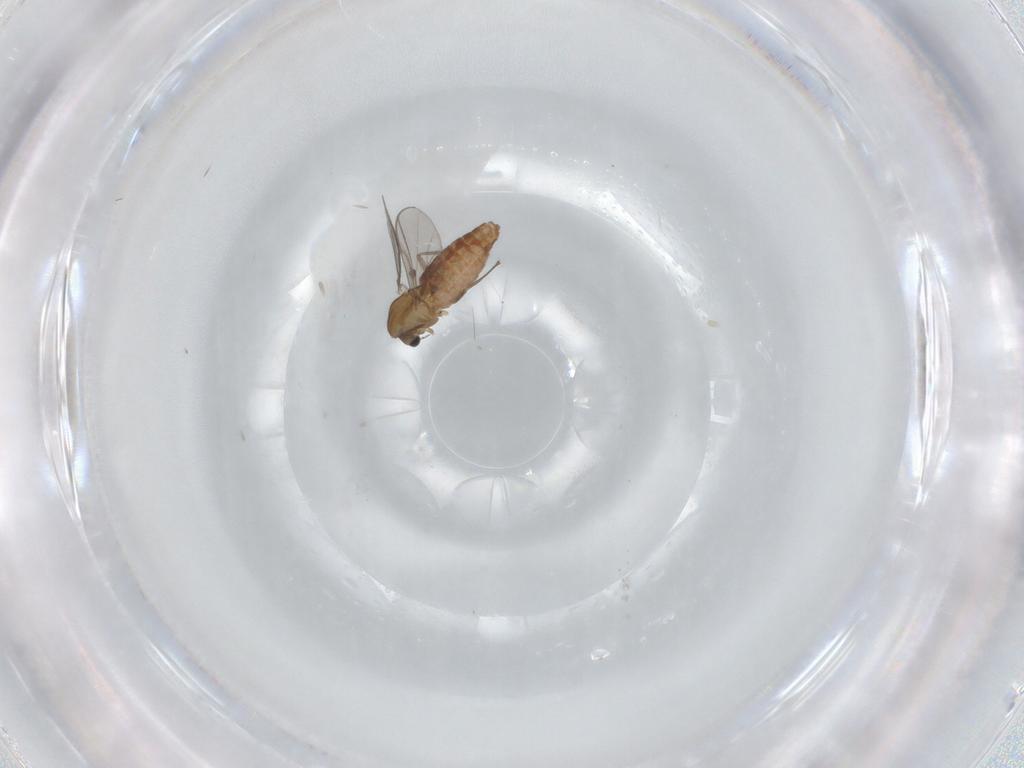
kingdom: Animalia
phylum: Arthropoda
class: Insecta
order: Diptera
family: Chironomidae
